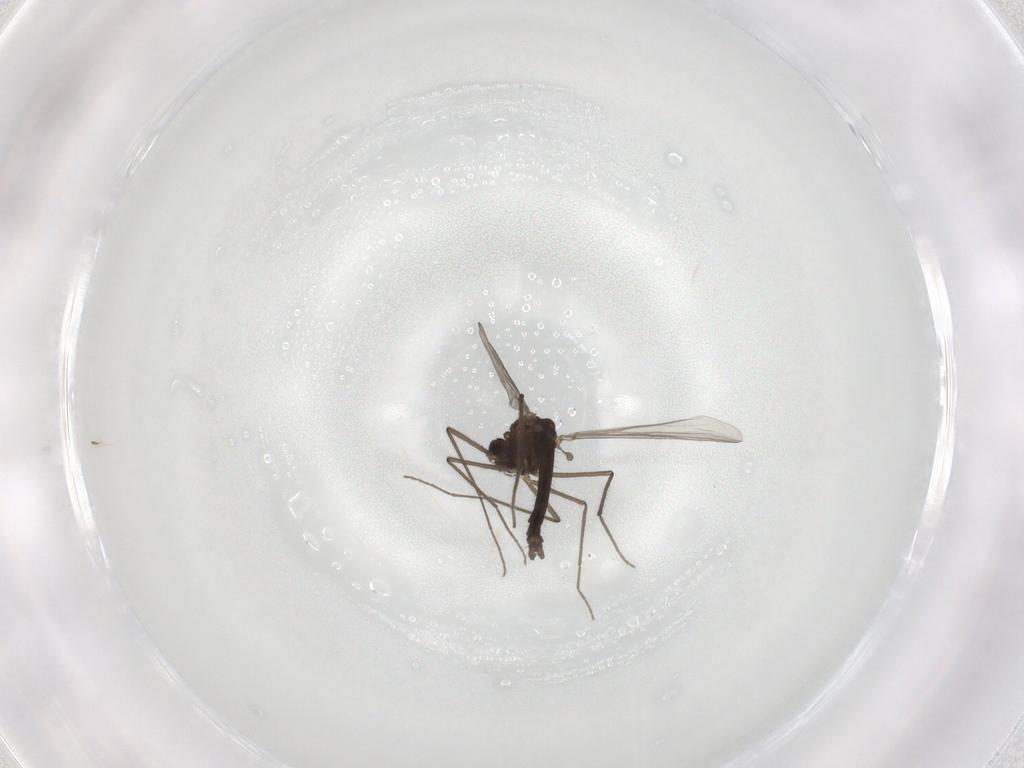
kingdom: Animalia
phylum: Arthropoda
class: Insecta
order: Diptera
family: Chironomidae
